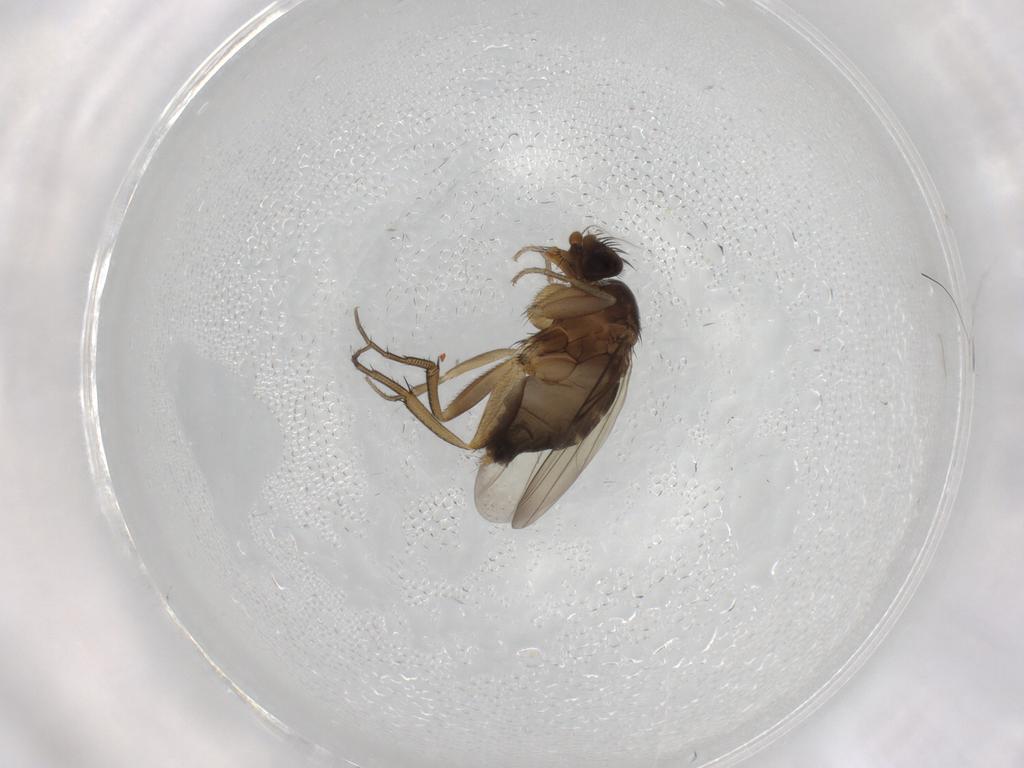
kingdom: Animalia
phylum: Arthropoda
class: Insecta
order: Diptera
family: Phoridae
